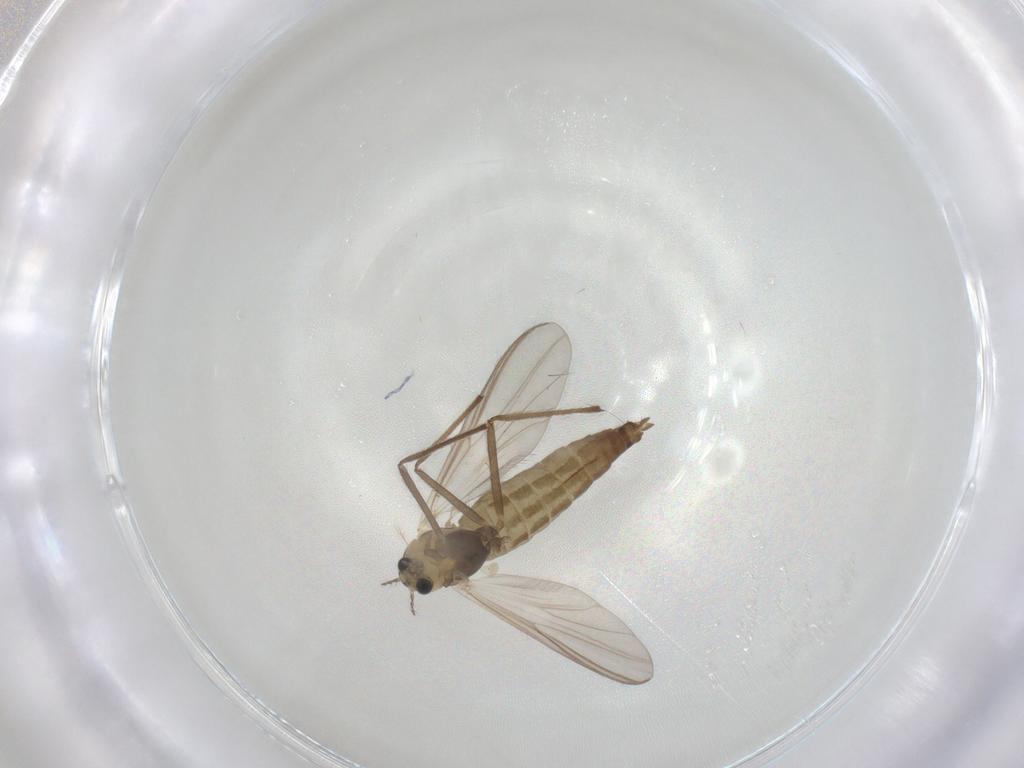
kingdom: Animalia
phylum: Arthropoda
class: Insecta
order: Diptera
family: Chironomidae
